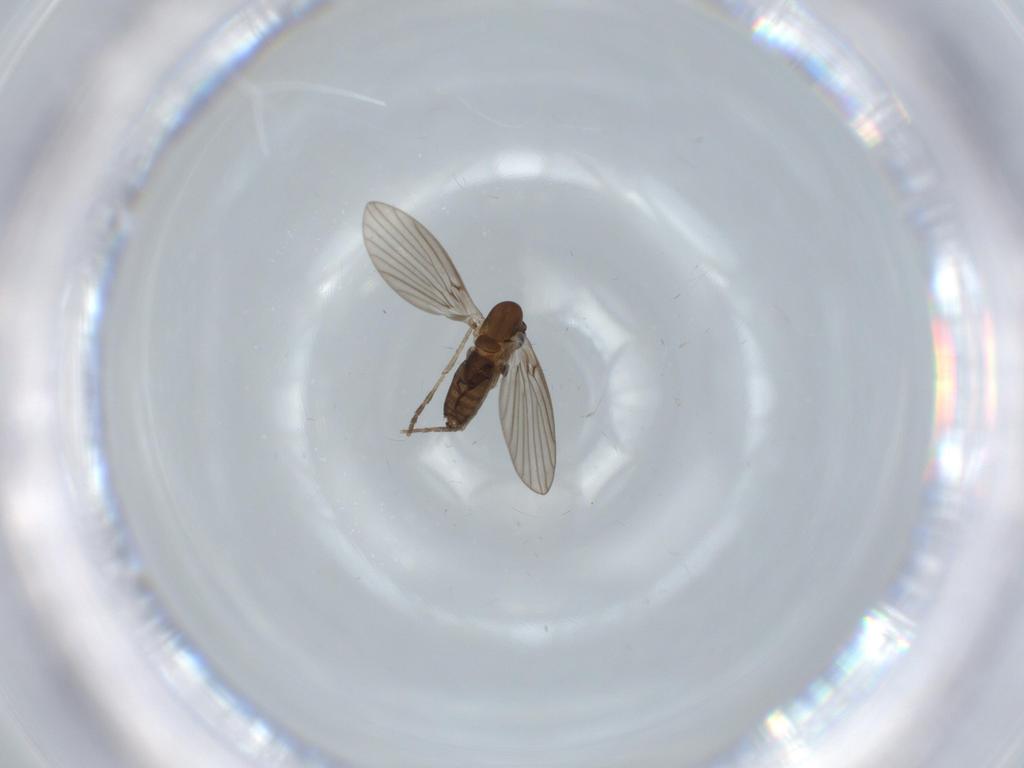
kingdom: Animalia
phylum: Arthropoda
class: Insecta
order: Diptera
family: Psychodidae
